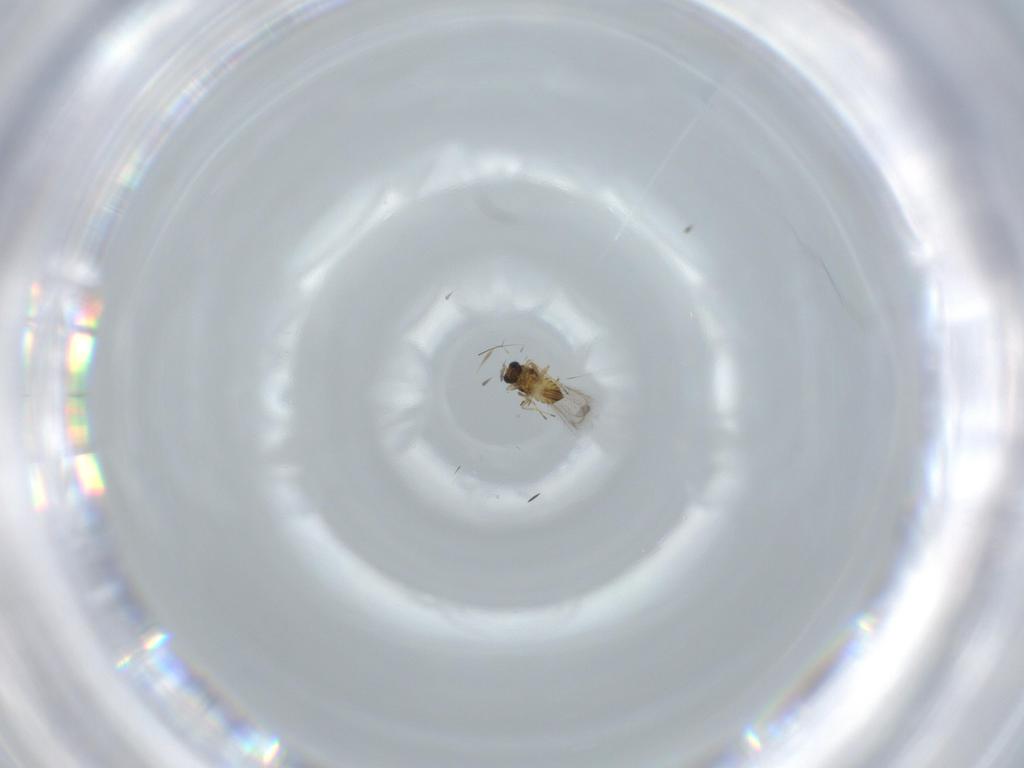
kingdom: Animalia
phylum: Arthropoda
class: Insecta
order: Hymenoptera
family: Trichogrammatidae
